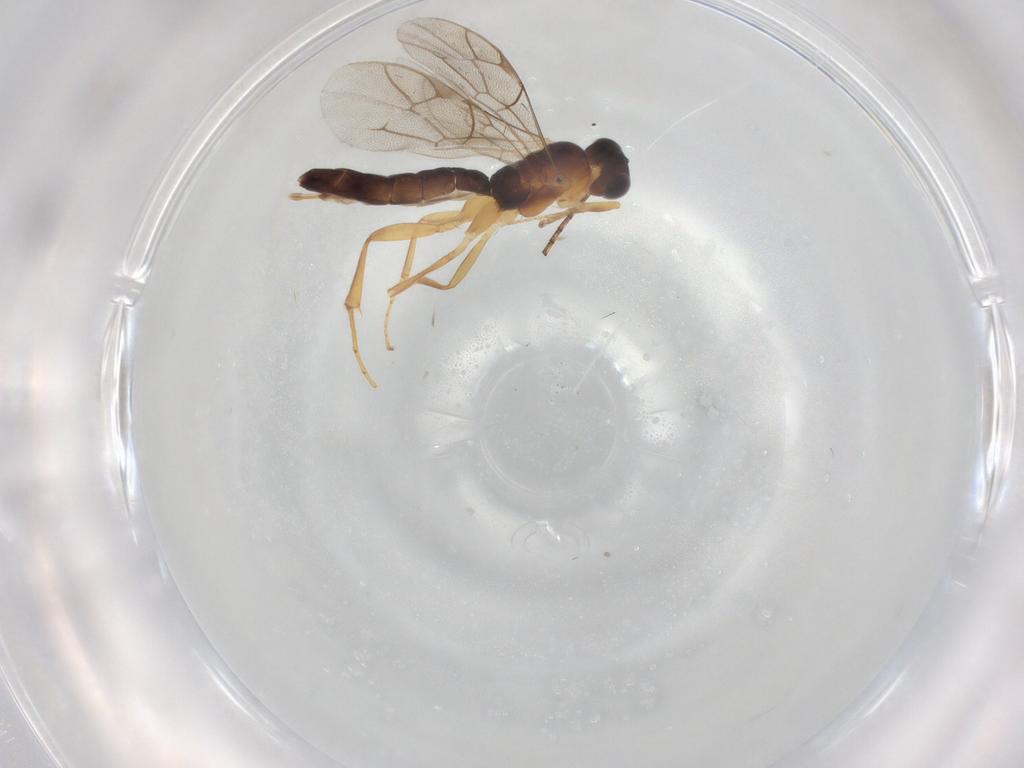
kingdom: Animalia
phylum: Arthropoda
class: Insecta
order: Hymenoptera
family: Ichneumonidae
